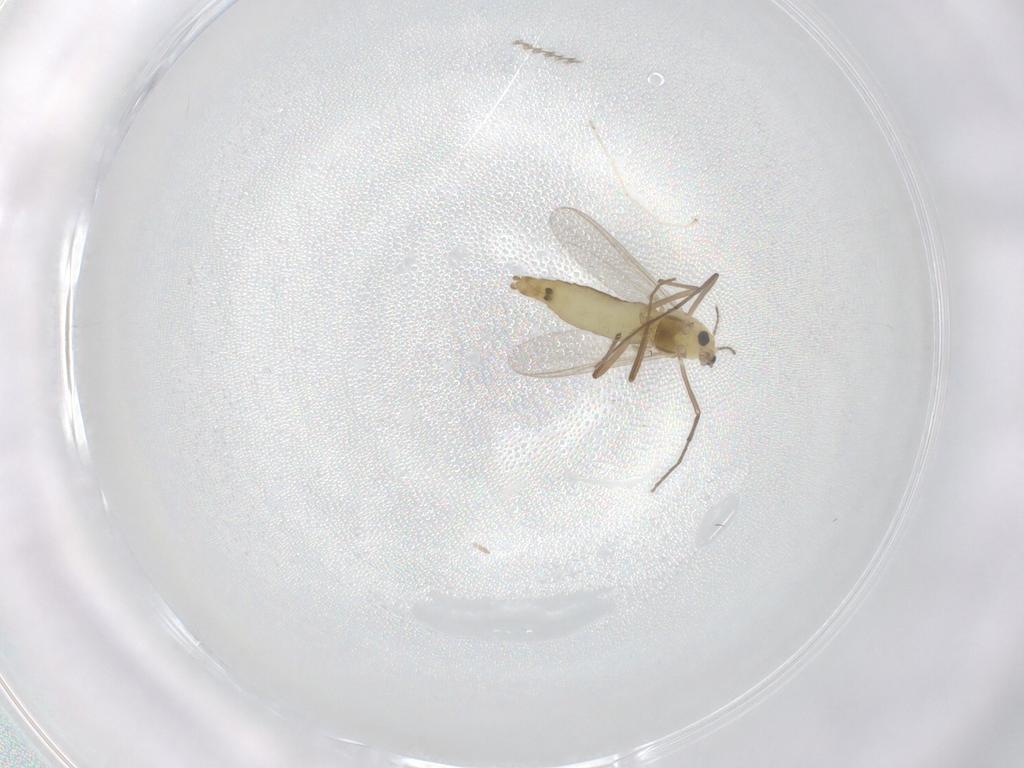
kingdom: Animalia
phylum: Arthropoda
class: Insecta
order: Diptera
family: Chironomidae
